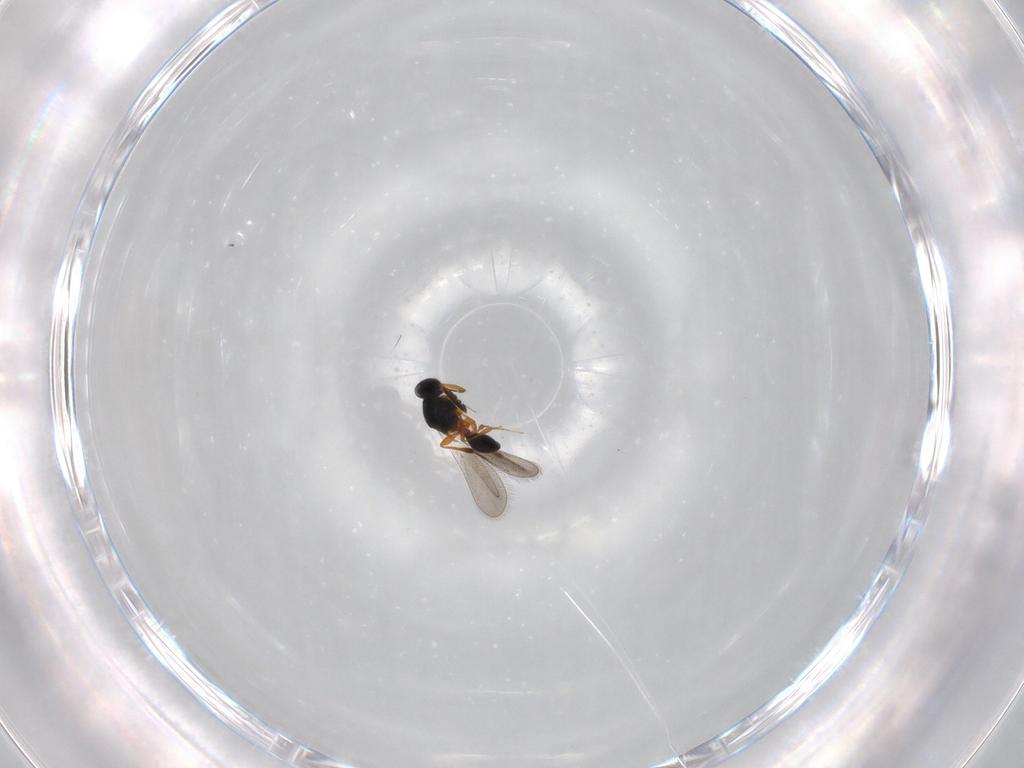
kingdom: Animalia
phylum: Arthropoda
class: Insecta
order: Hymenoptera
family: Platygastridae
